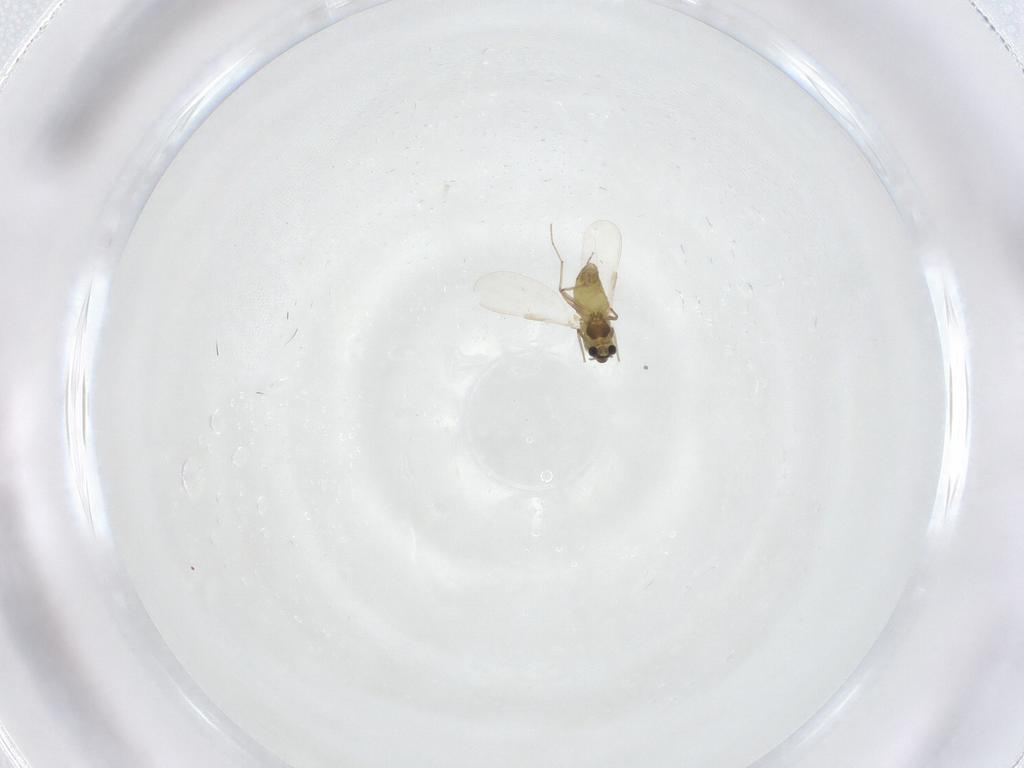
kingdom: Animalia
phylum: Arthropoda
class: Insecta
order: Diptera
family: Chironomidae
